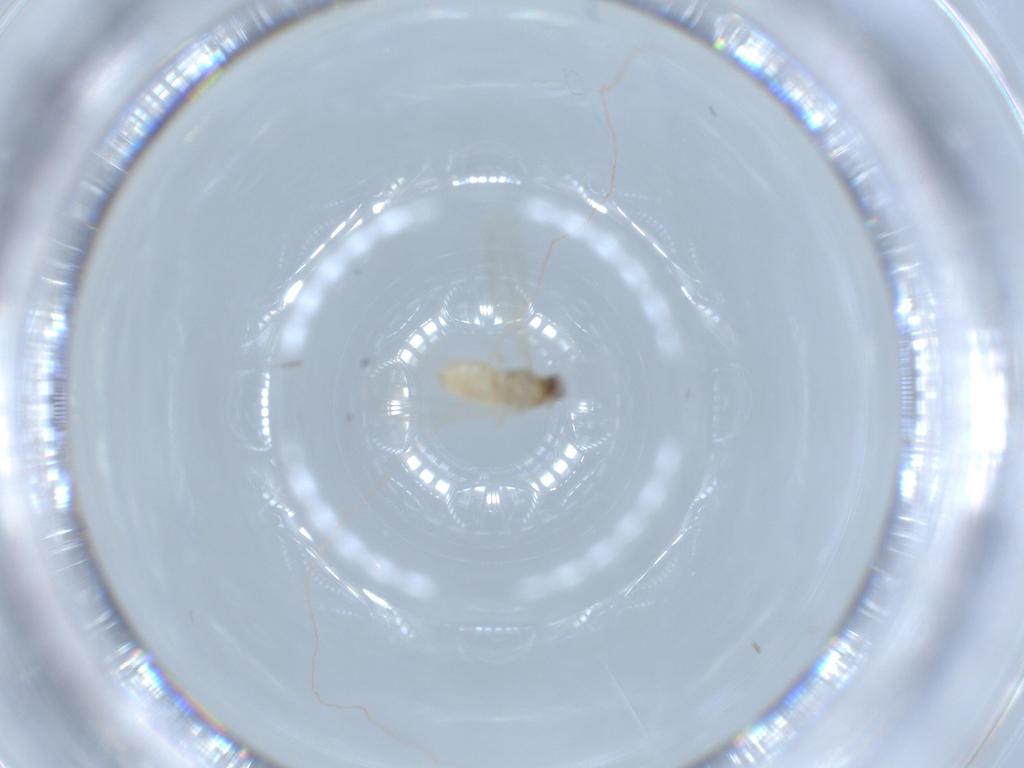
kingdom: Animalia
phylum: Arthropoda
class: Insecta
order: Diptera
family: Cecidomyiidae
